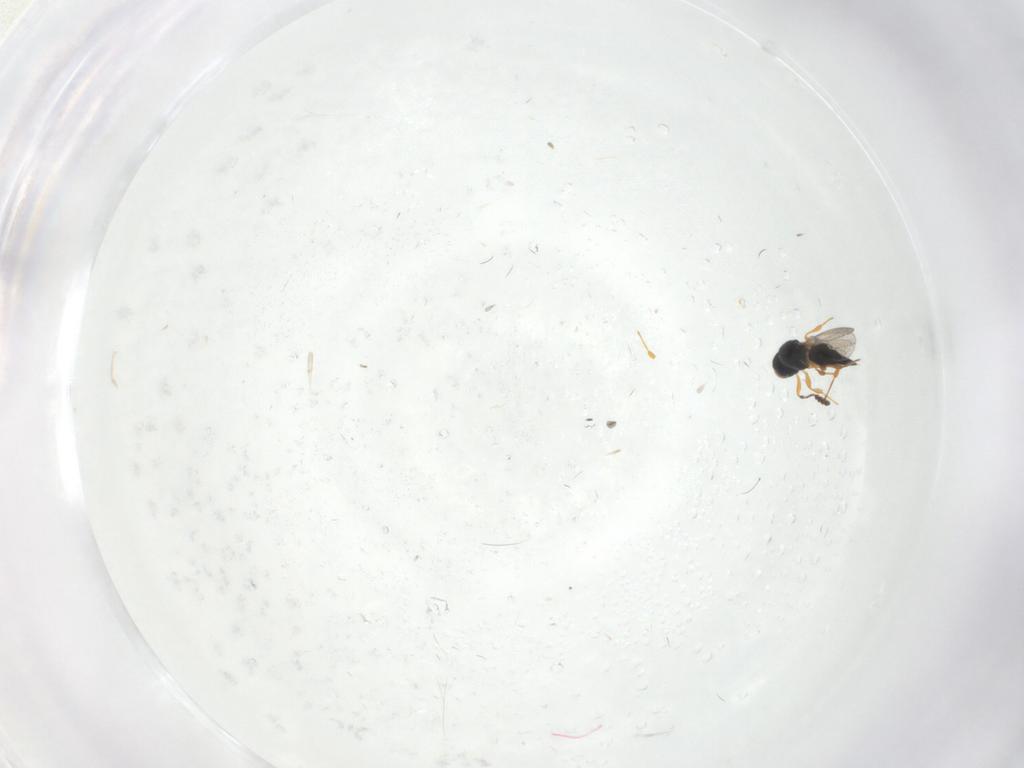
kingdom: Animalia
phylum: Arthropoda
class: Insecta
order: Hymenoptera
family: Platygastridae
